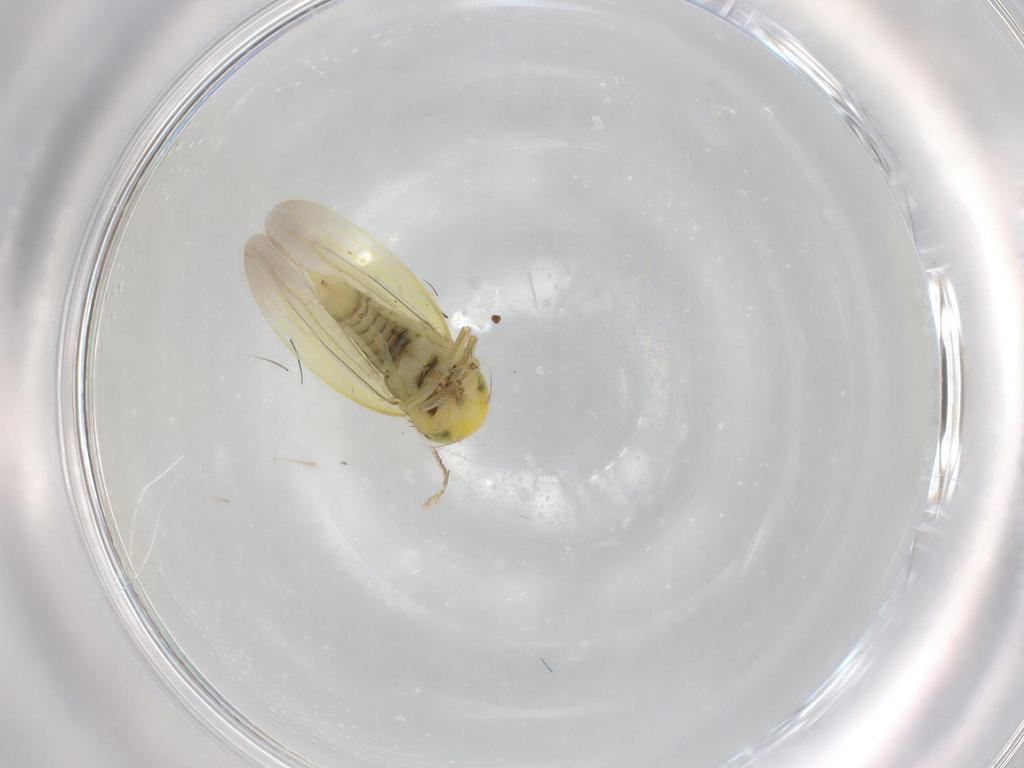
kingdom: Animalia
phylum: Arthropoda
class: Insecta
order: Hemiptera
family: Cicadellidae
